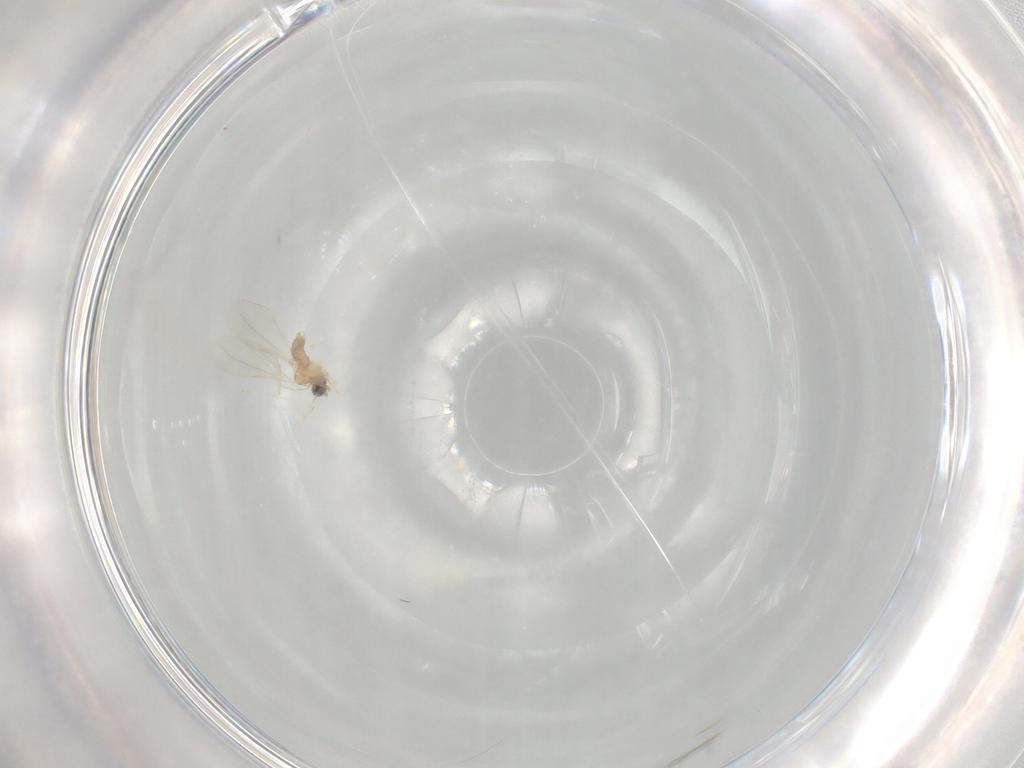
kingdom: Animalia
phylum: Arthropoda
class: Insecta
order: Diptera
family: Cecidomyiidae
